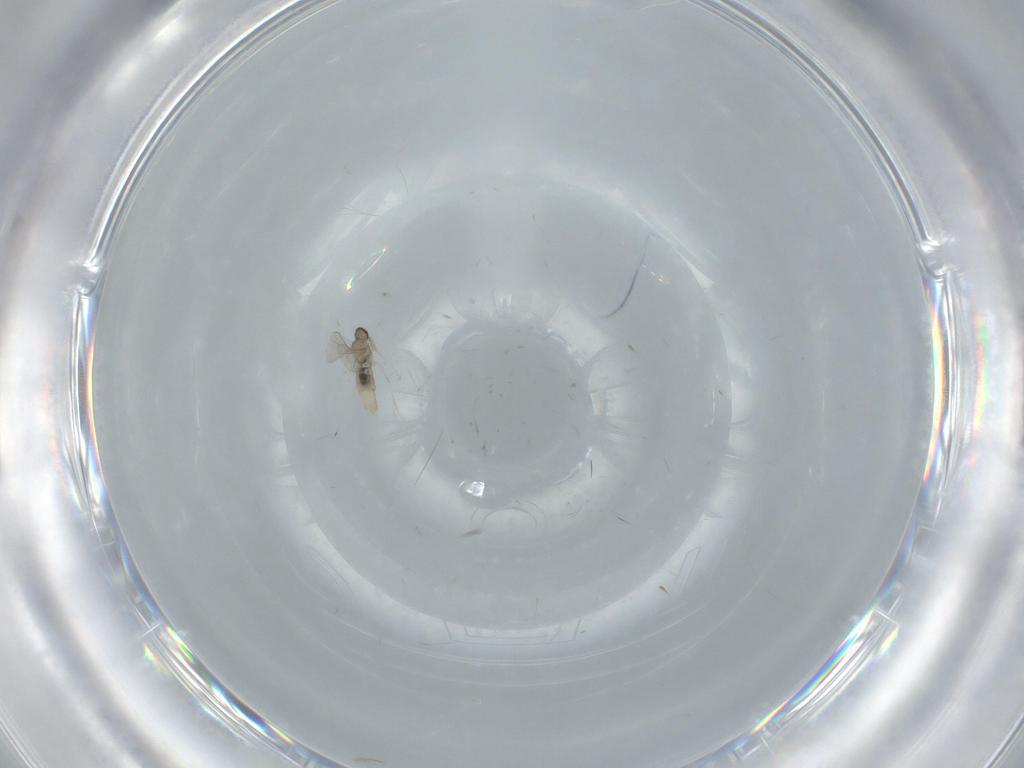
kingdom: Animalia
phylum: Arthropoda
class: Insecta
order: Diptera
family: Cecidomyiidae
